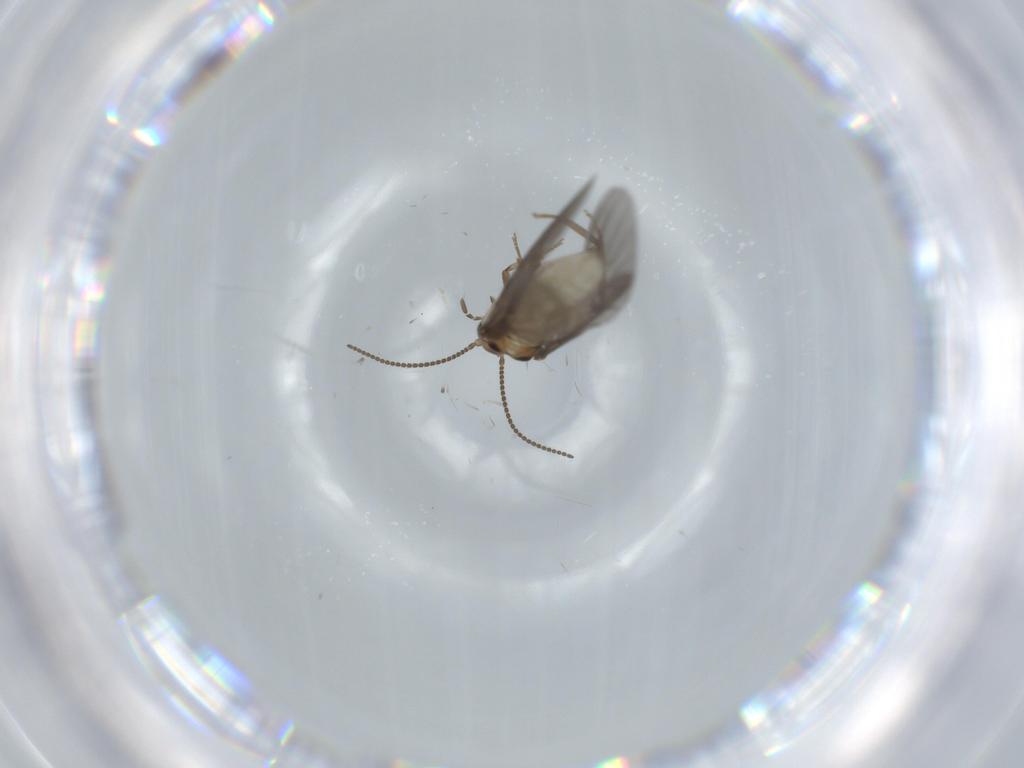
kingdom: Animalia
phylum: Arthropoda
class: Insecta
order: Neuroptera
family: Coniopterygidae
